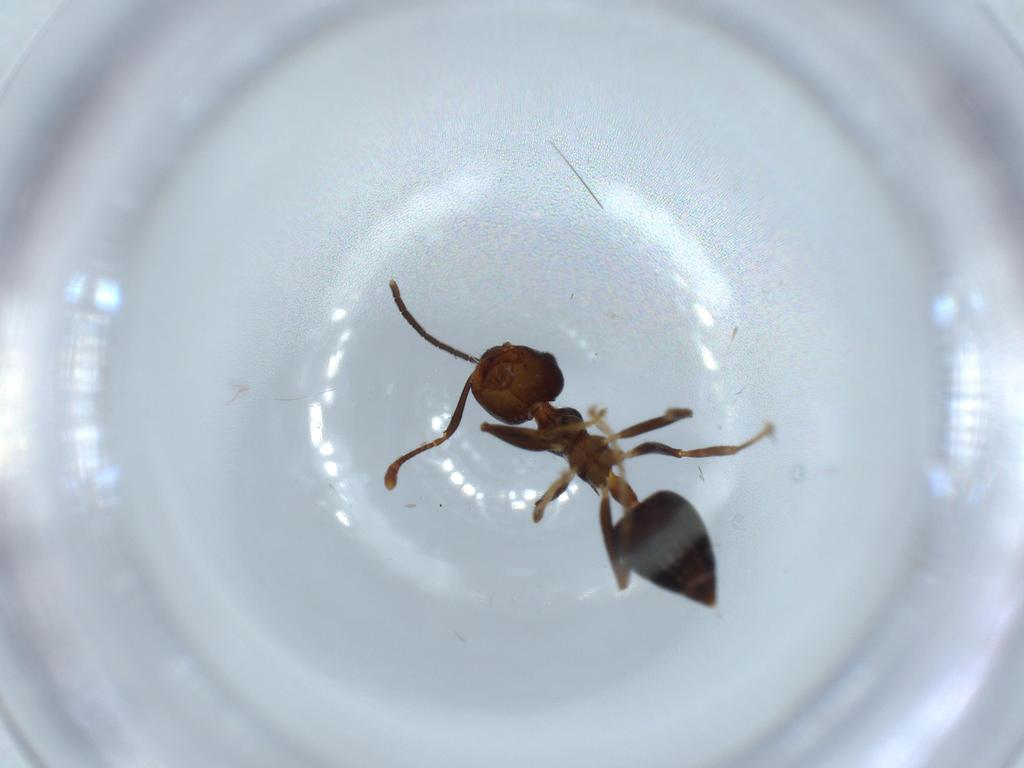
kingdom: Animalia
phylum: Arthropoda
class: Insecta
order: Hymenoptera
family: Formicidae
